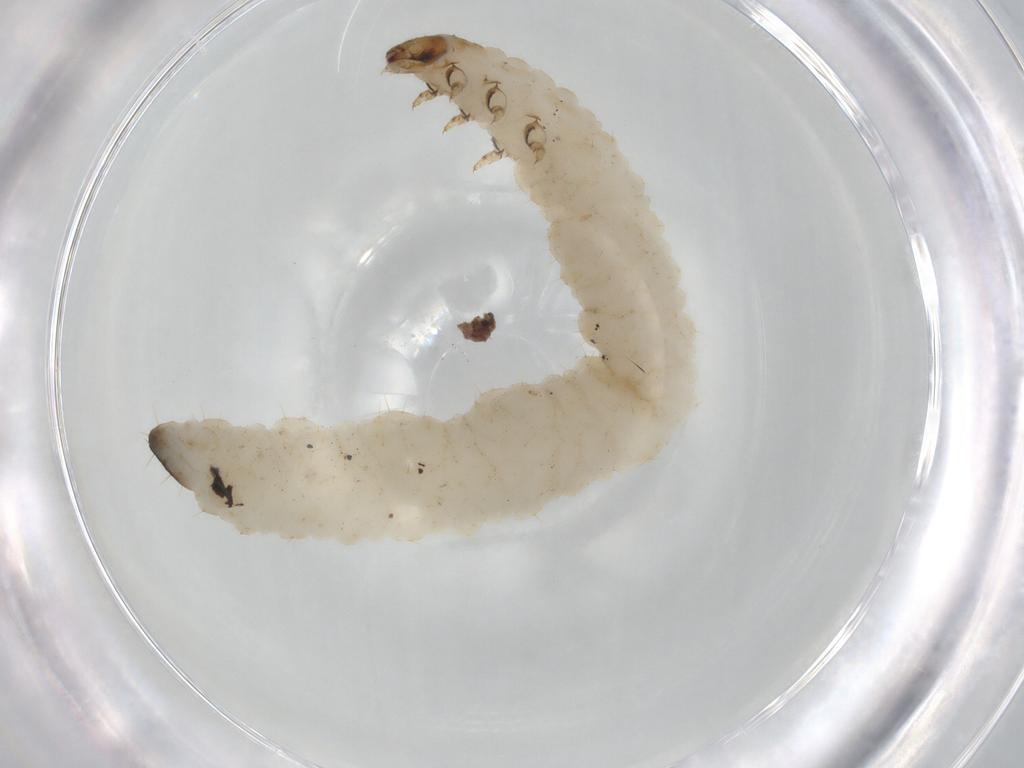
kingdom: Animalia
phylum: Arthropoda
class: Insecta
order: Coleoptera
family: Chrysomelidae
